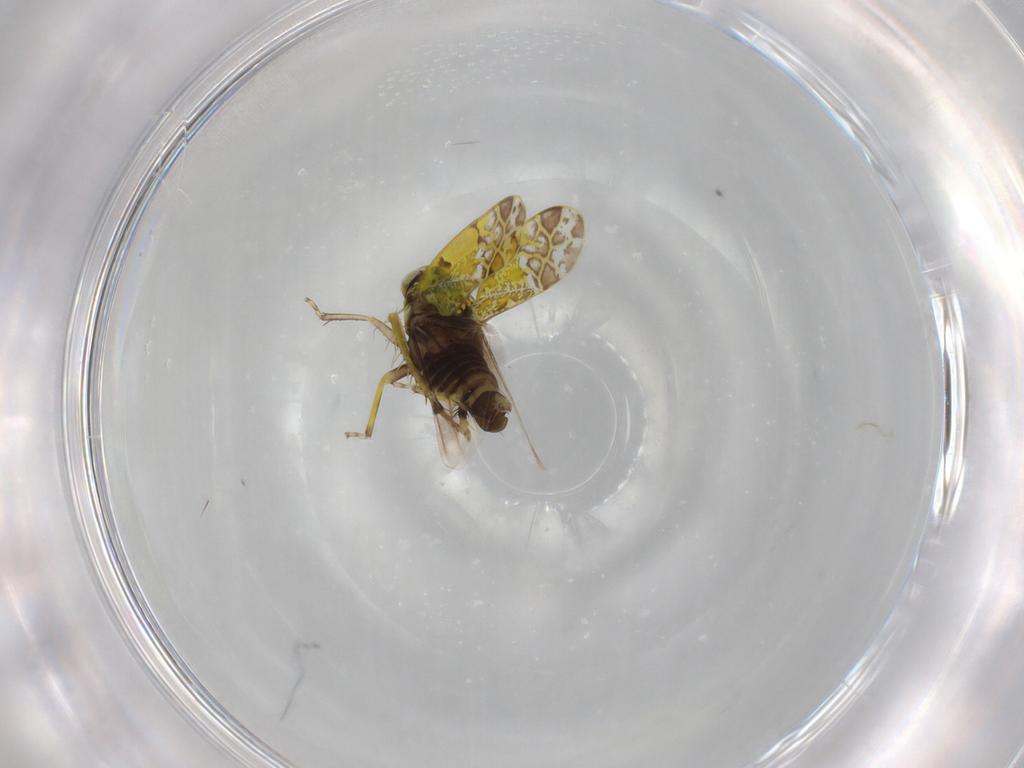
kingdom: Animalia
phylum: Arthropoda
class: Insecta
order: Hemiptera
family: Cicadellidae
